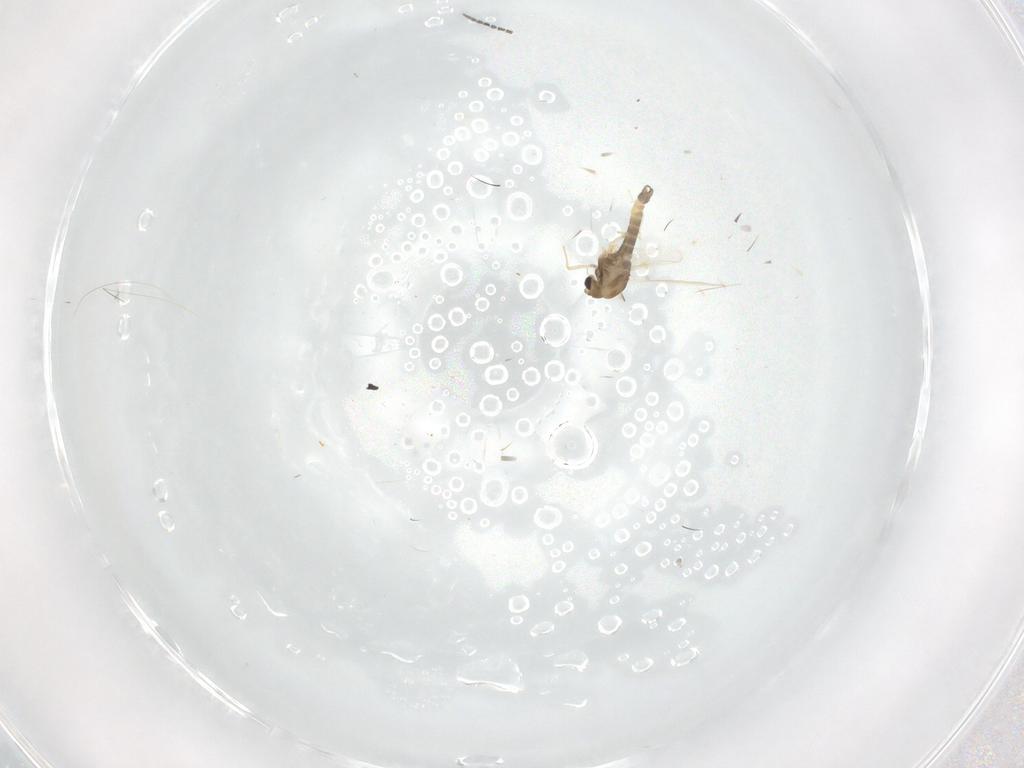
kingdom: Animalia
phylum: Arthropoda
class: Insecta
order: Diptera
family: Sciaridae
